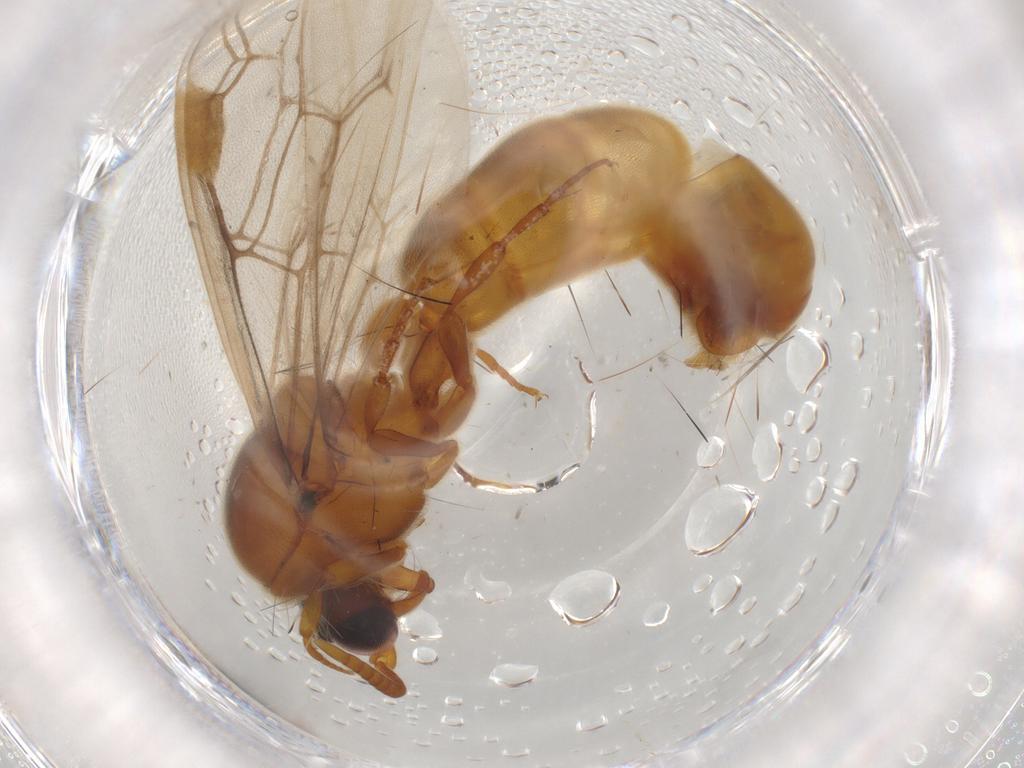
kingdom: Animalia
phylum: Arthropoda
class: Insecta
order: Hymenoptera
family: Formicidae
